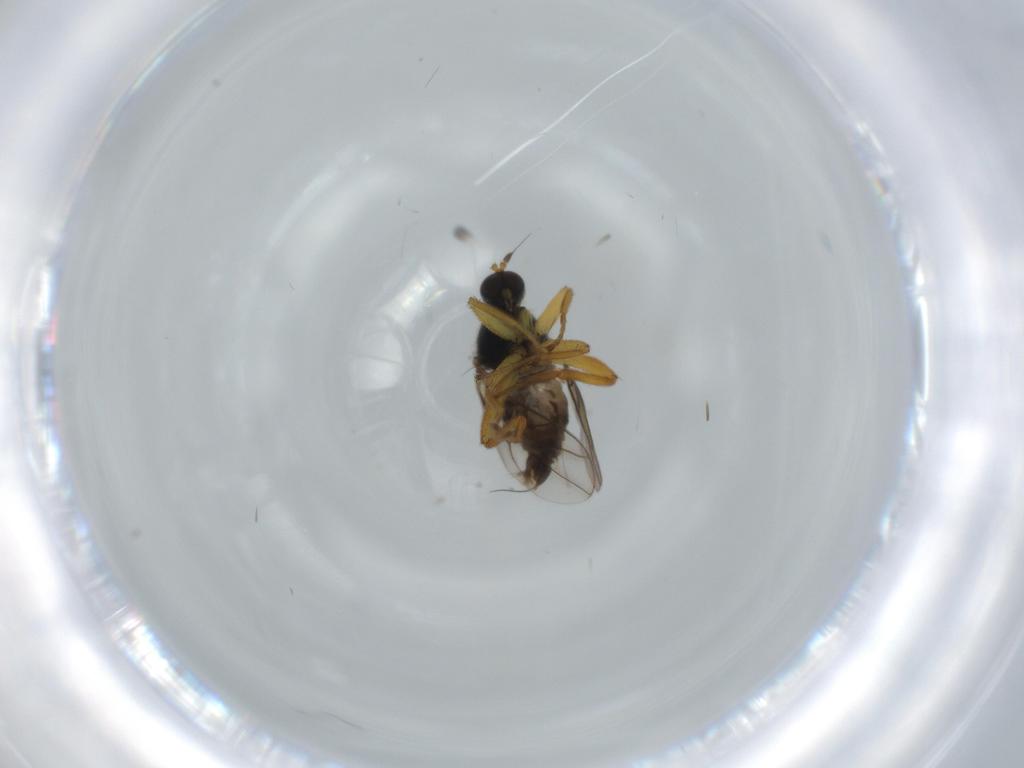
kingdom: Animalia
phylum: Arthropoda
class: Insecta
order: Diptera
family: Hybotidae
